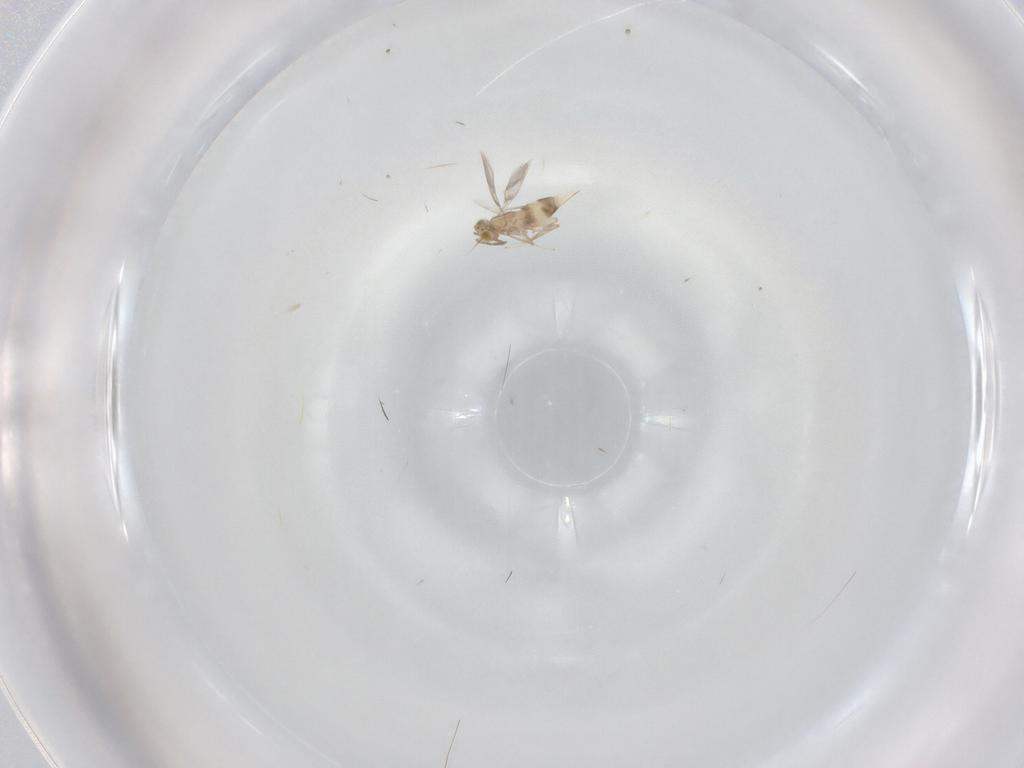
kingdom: Animalia
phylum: Arthropoda
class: Insecta
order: Hymenoptera
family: Aphelinidae
